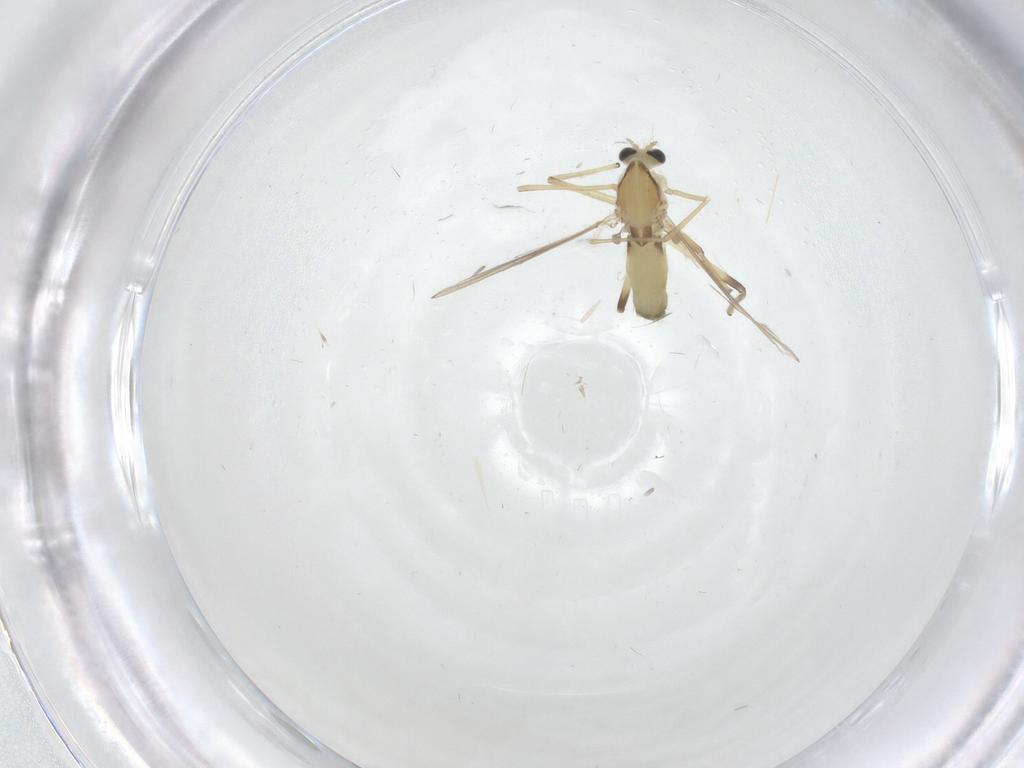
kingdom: Animalia
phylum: Arthropoda
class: Insecta
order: Diptera
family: Chironomidae
